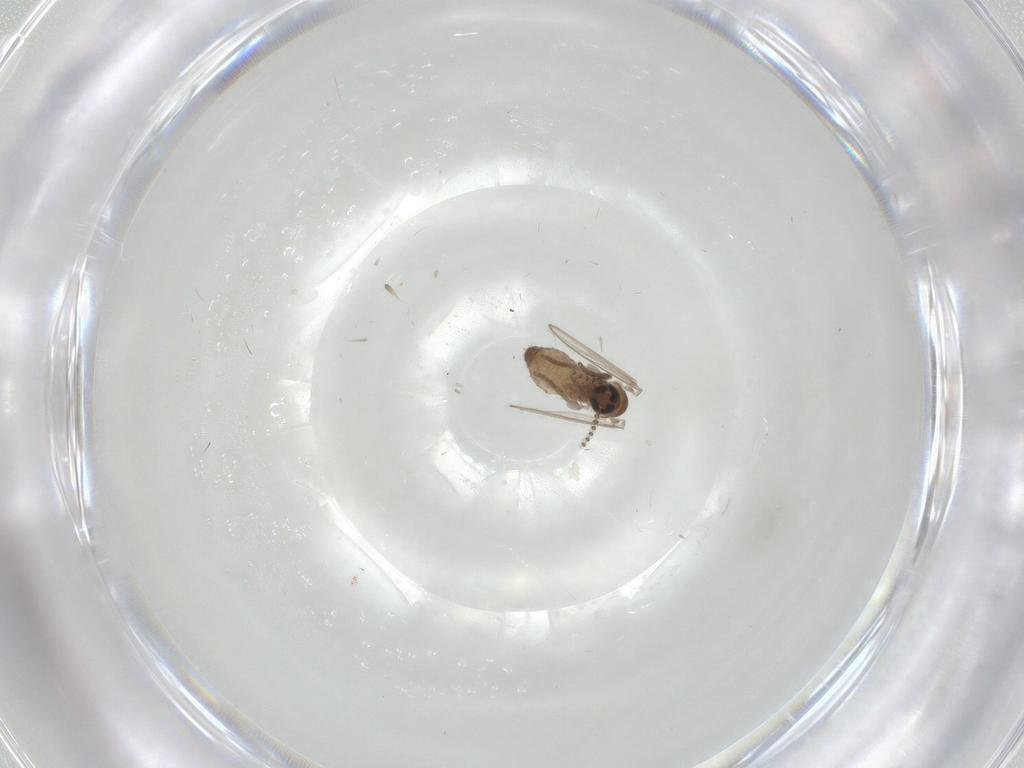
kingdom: Animalia
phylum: Arthropoda
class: Insecta
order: Diptera
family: Psychodidae
